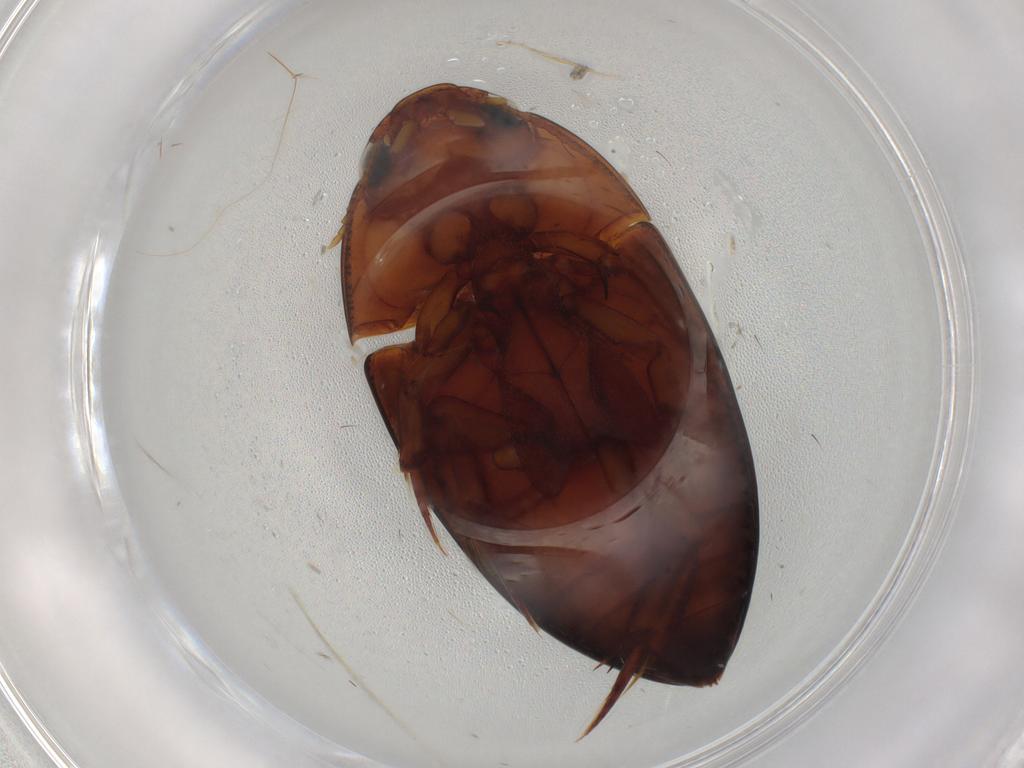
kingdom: Animalia
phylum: Arthropoda
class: Insecta
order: Coleoptera
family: Noteridae
